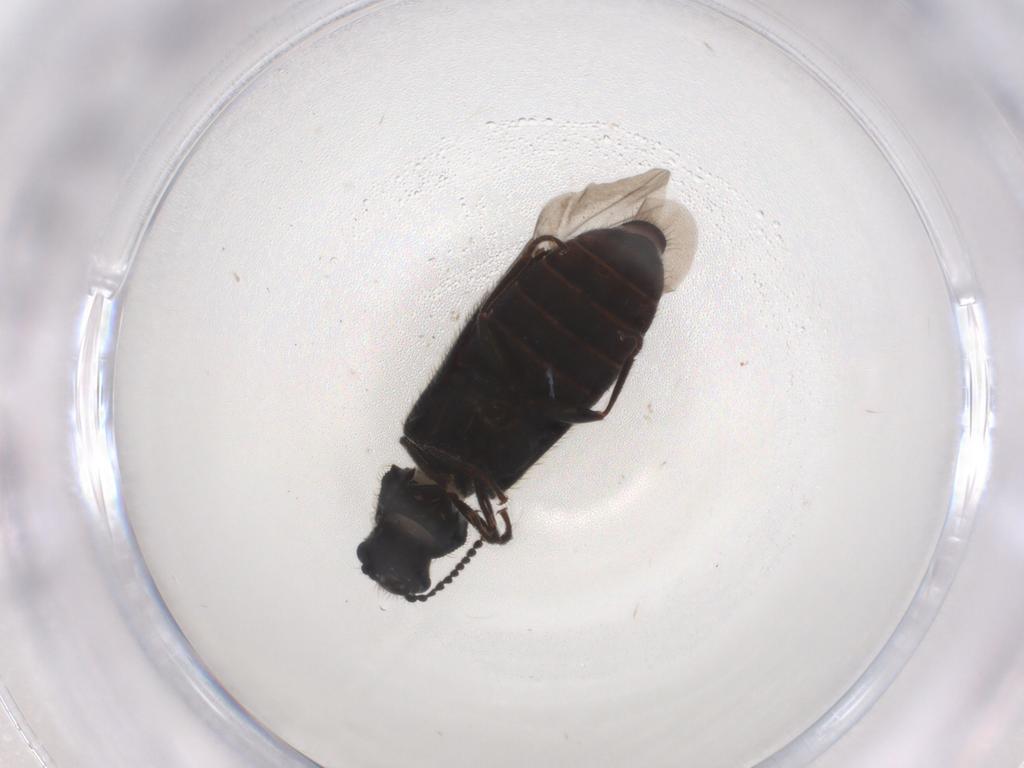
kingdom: Animalia
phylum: Arthropoda
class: Insecta
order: Coleoptera
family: Melyridae
